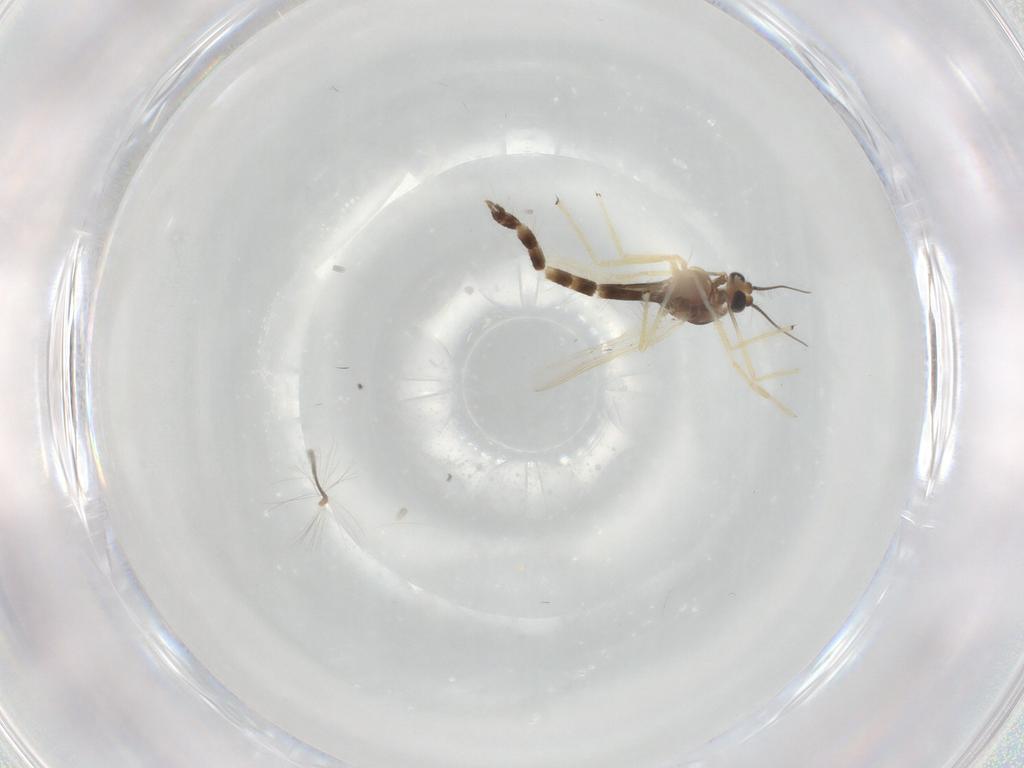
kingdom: Animalia
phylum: Arthropoda
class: Insecta
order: Diptera
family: Chironomidae
